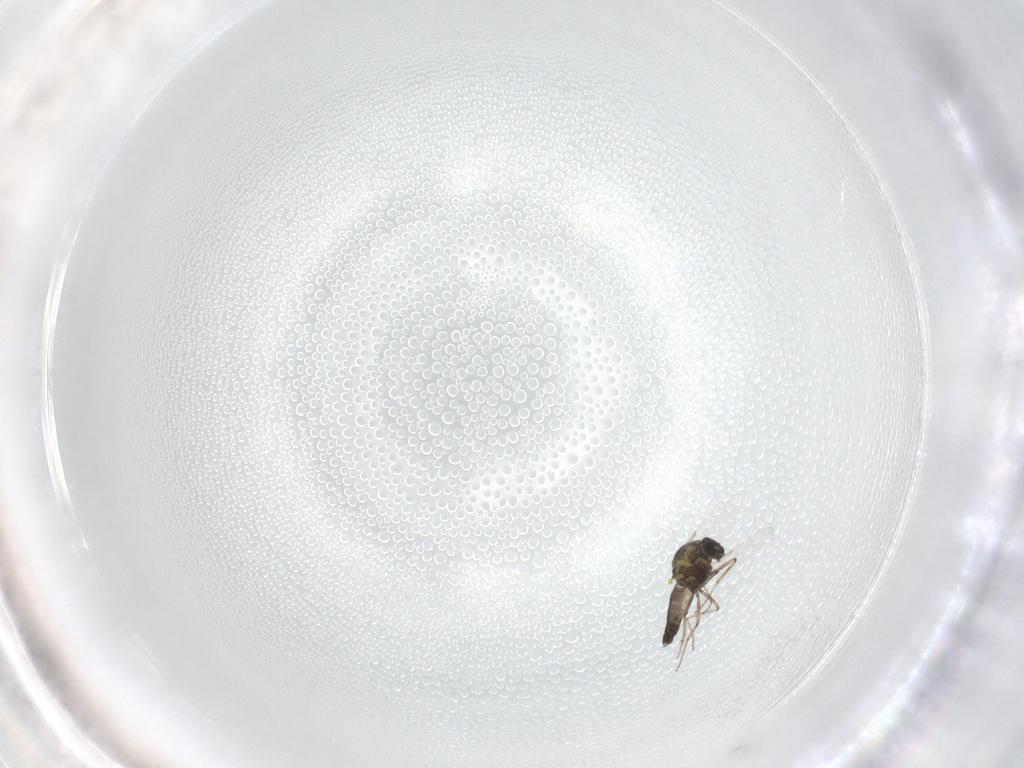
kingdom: Animalia
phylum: Arthropoda
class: Insecta
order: Diptera
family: Ceratopogonidae
